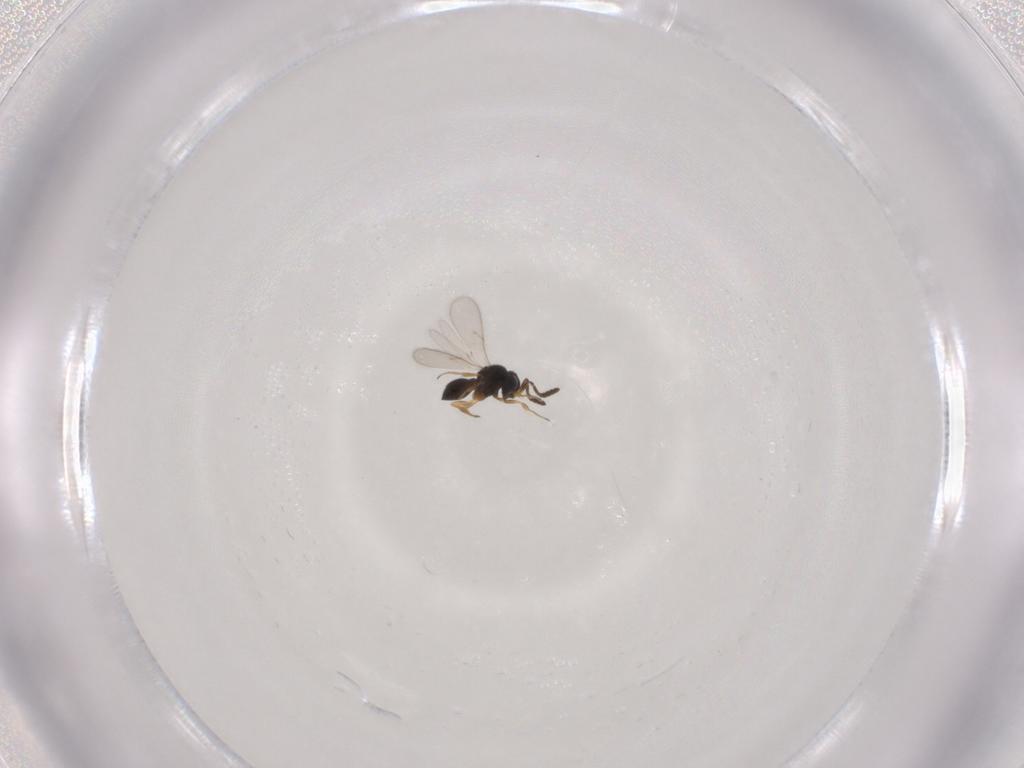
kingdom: Animalia
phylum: Arthropoda
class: Insecta
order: Hymenoptera
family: Scelionidae
